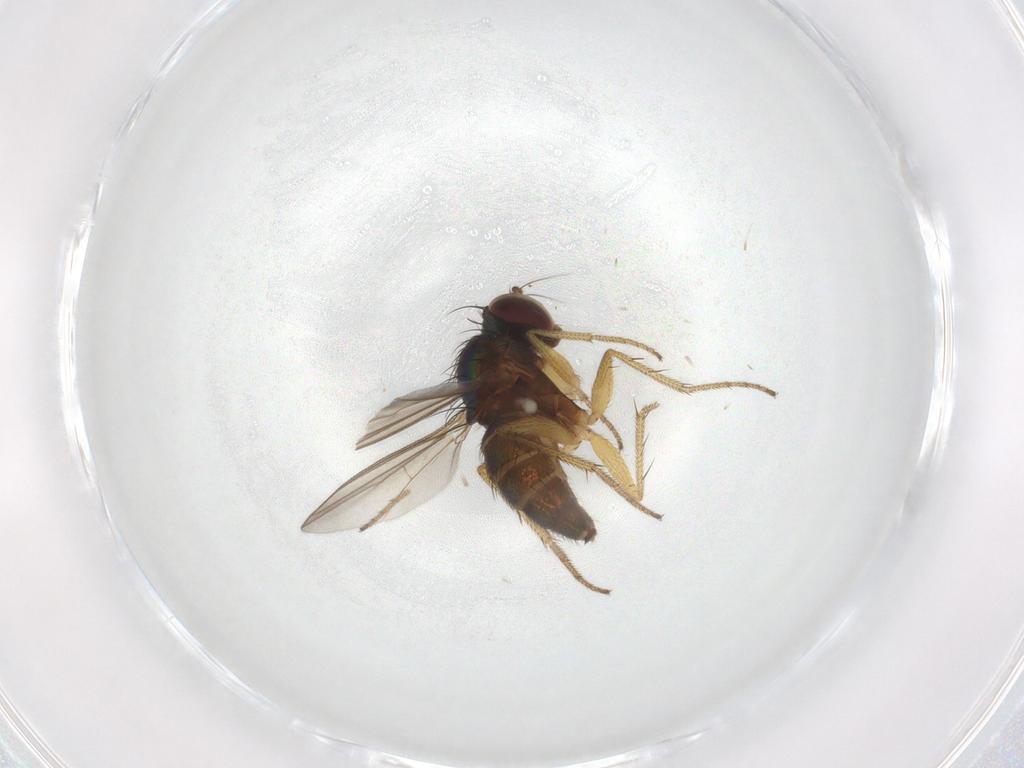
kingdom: Animalia
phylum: Arthropoda
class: Insecta
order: Diptera
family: Dolichopodidae
